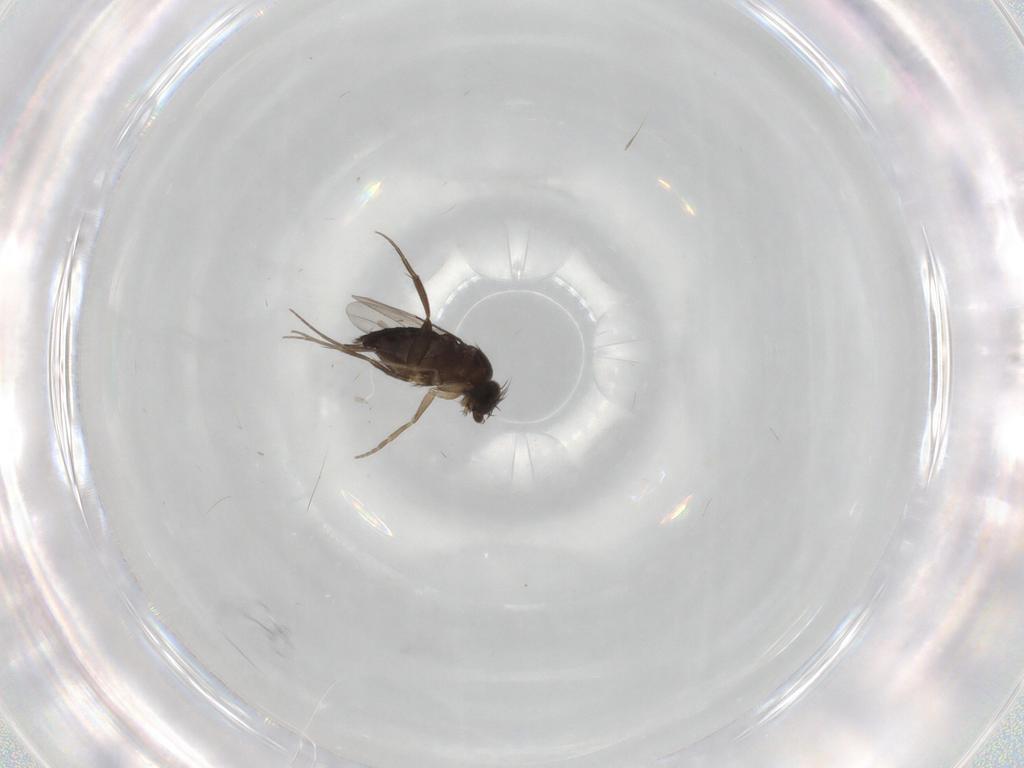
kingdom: Animalia
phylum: Arthropoda
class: Insecta
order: Diptera
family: Phoridae
